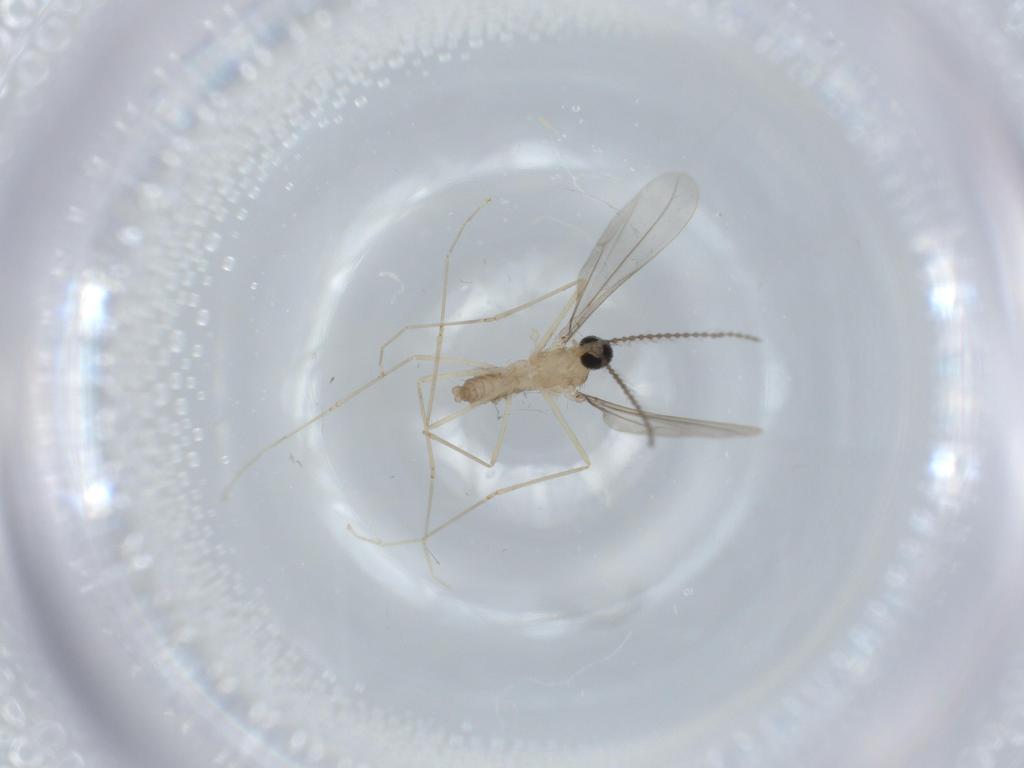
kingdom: Animalia
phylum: Arthropoda
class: Insecta
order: Diptera
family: Cecidomyiidae
